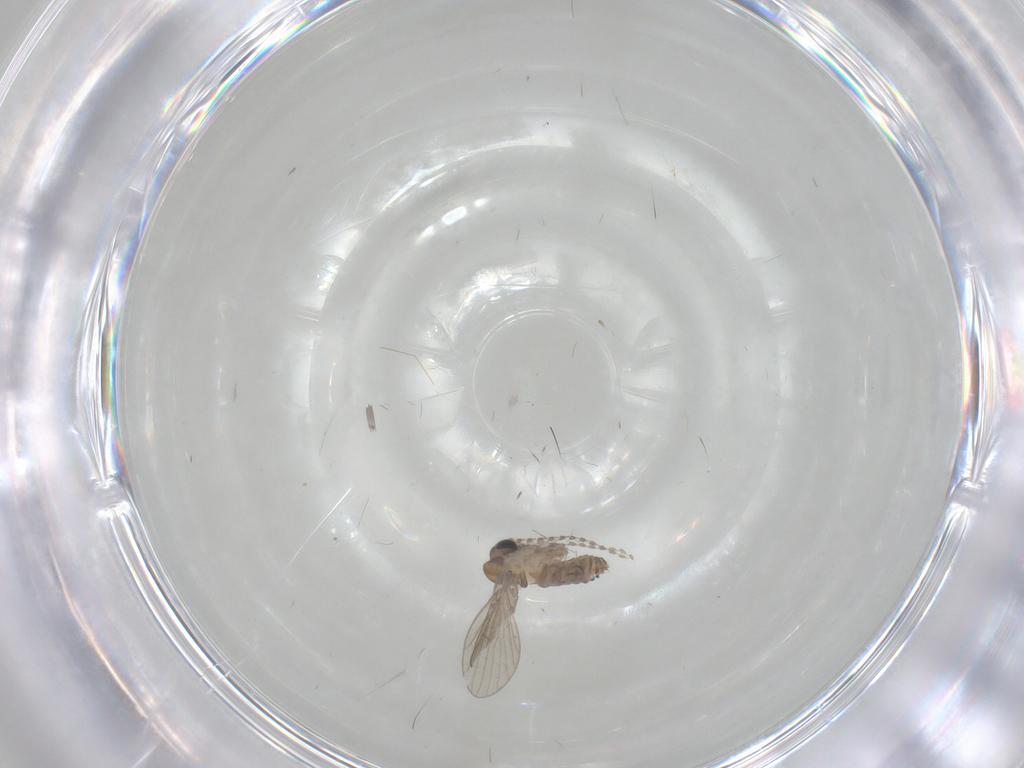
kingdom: Animalia
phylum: Arthropoda
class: Insecta
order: Diptera
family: Psychodidae
